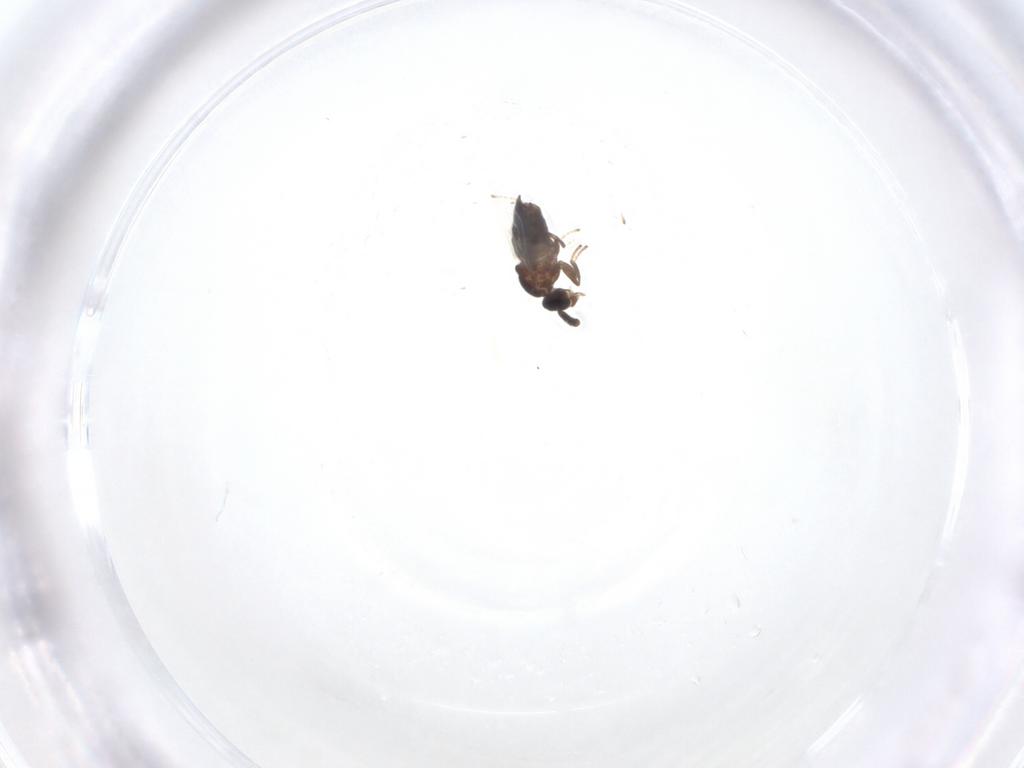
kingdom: Animalia
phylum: Arthropoda
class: Insecta
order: Diptera
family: Scatopsidae
